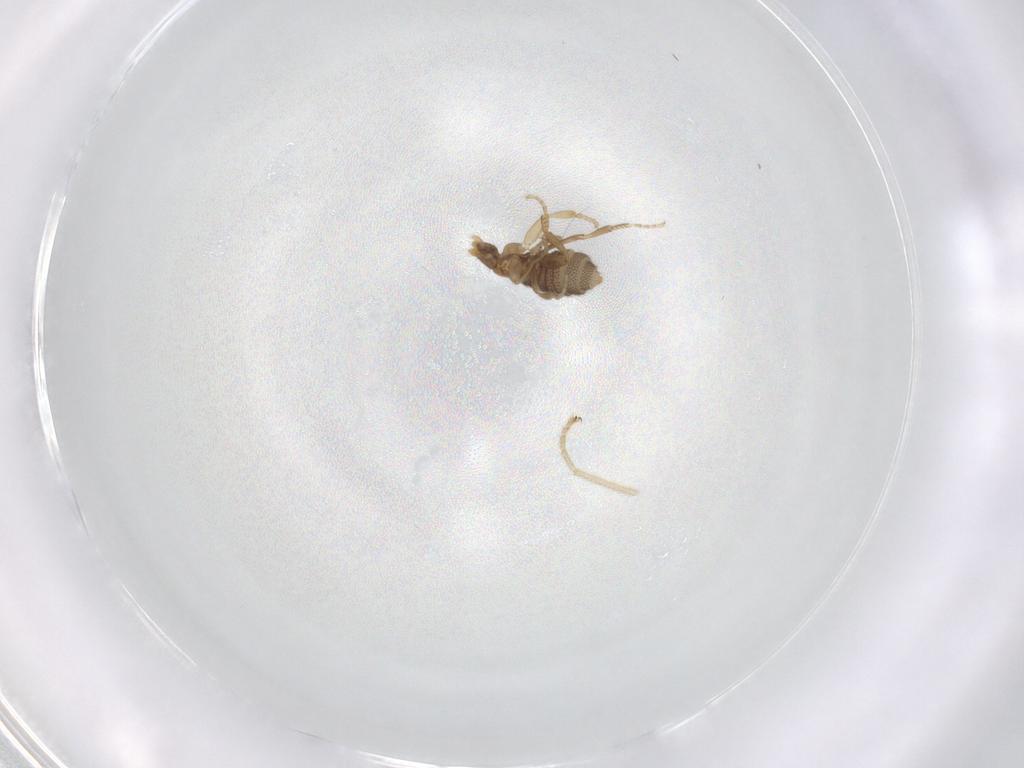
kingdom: Animalia
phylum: Arthropoda
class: Insecta
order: Diptera
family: Hybotidae
